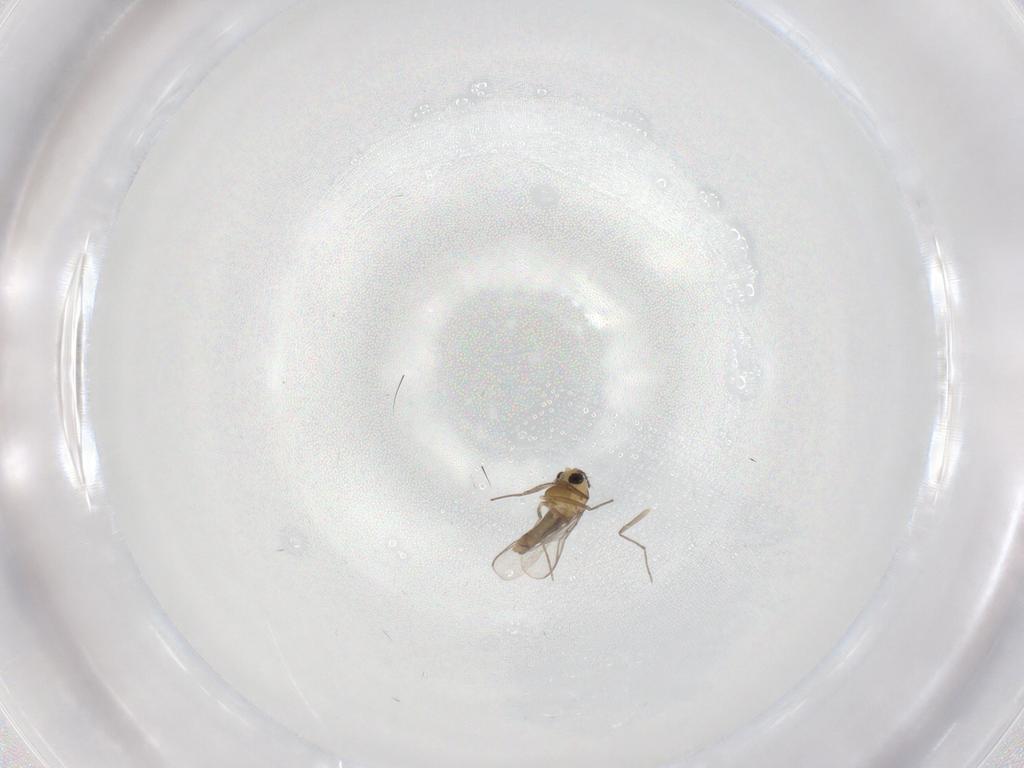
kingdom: Animalia
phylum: Arthropoda
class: Insecta
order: Diptera
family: Chironomidae
